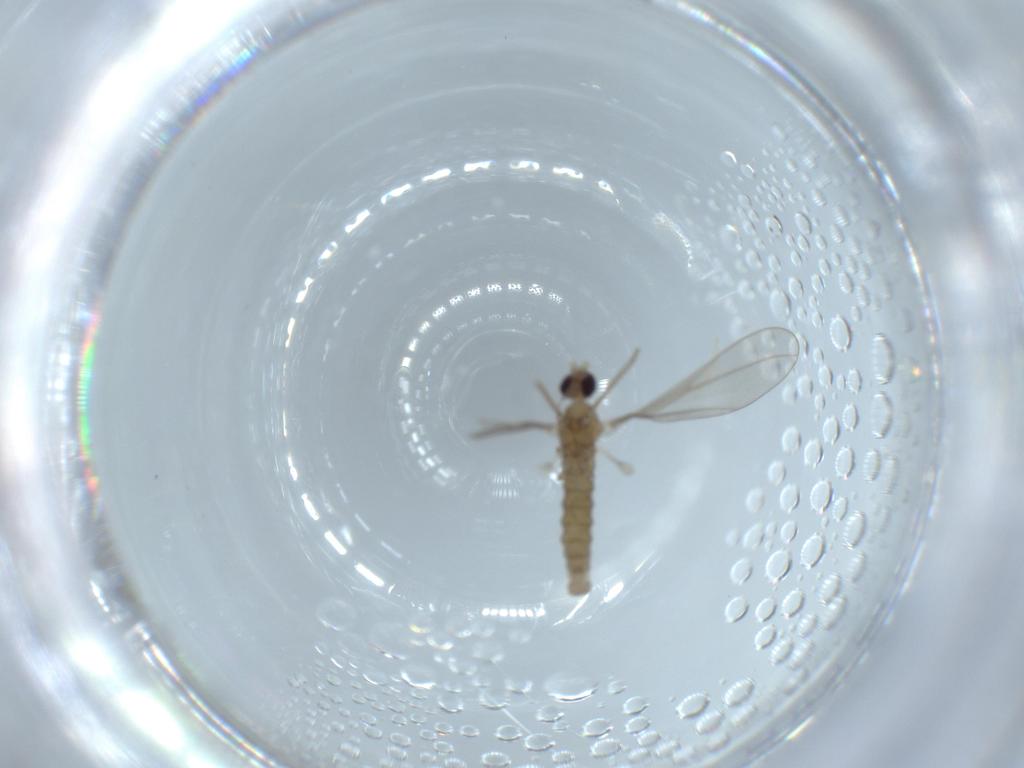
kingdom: Animalia
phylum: Arthropoda
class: Insecta
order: Diptera
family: Cecidomyiidae
